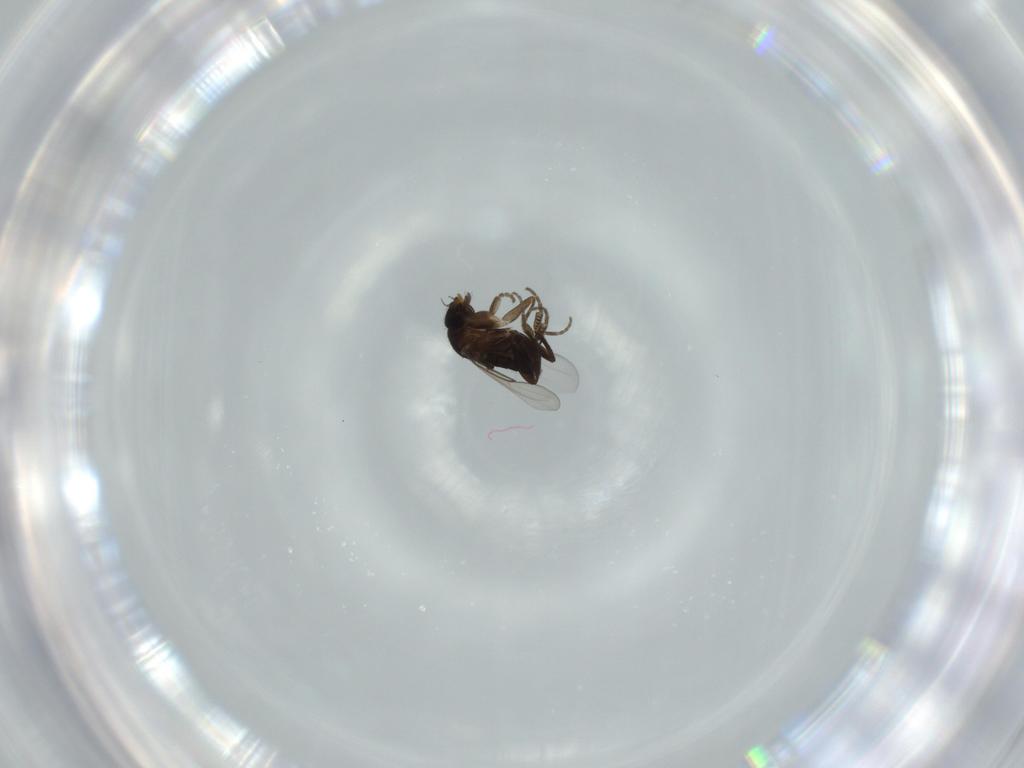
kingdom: Animalia
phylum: Arthropoda
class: Insecta
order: Diptera
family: Phoridae
